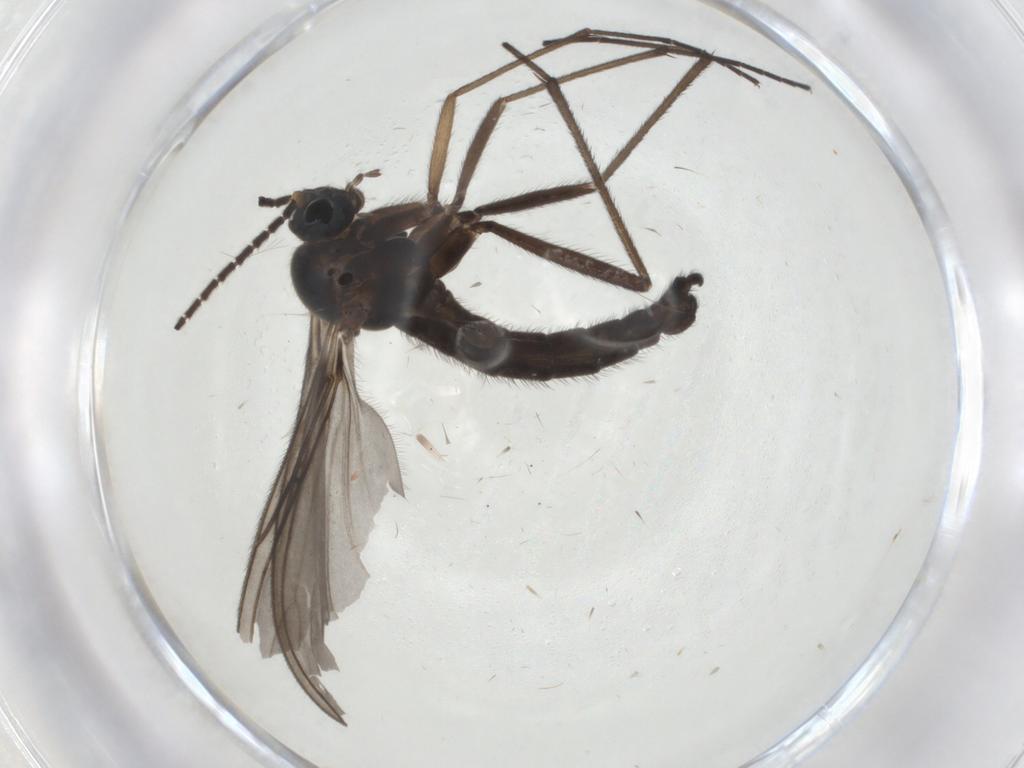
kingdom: Animalia
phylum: Arthropoda
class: Insecta
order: Diptera
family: Sciaridae
